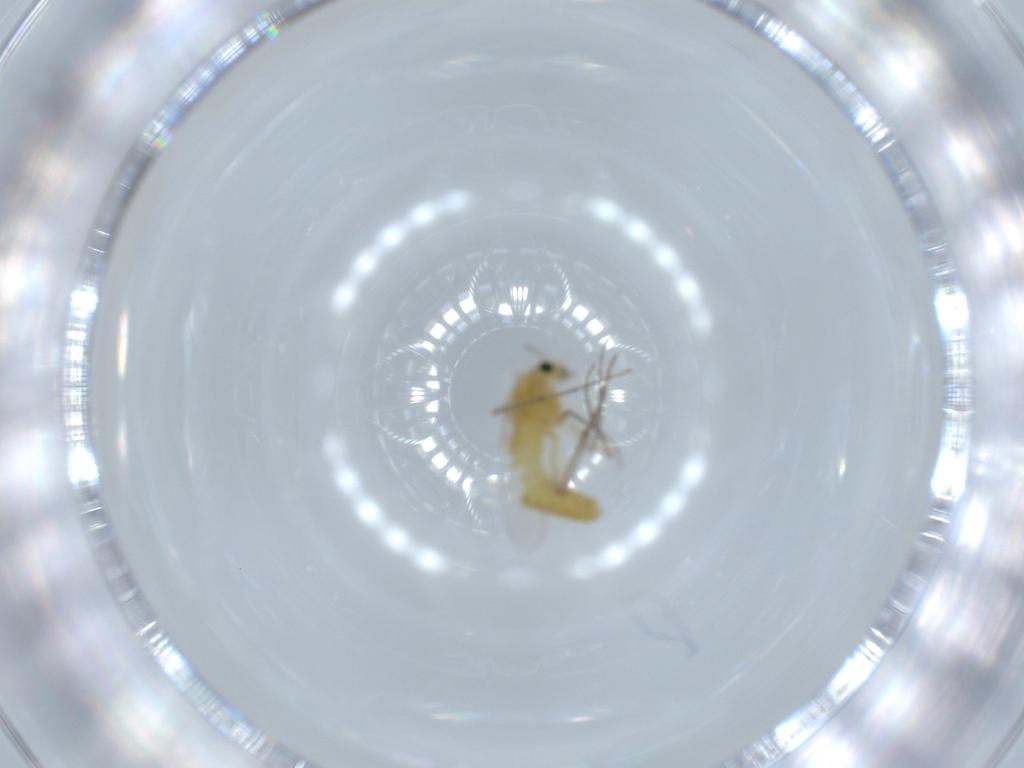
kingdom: Animalia
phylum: Arthropoda
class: Insecta
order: Diptera
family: Chironomidae
